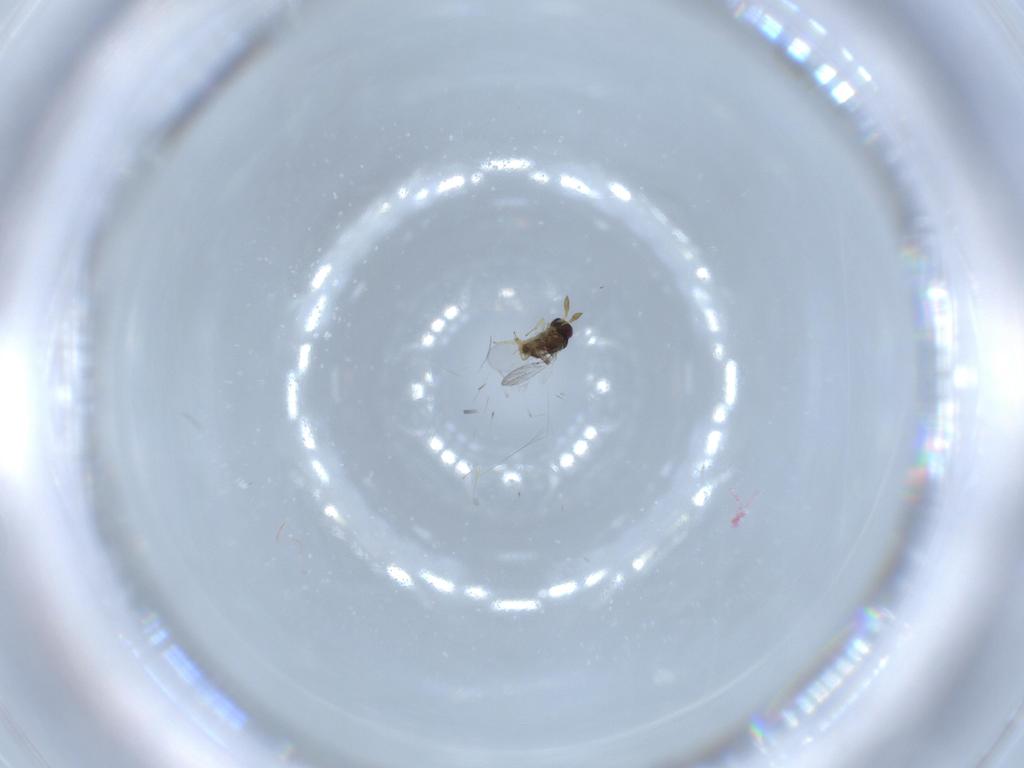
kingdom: Animalia
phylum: Arthropoda
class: Insecta
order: Hymenoptera
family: Encyrtidae
